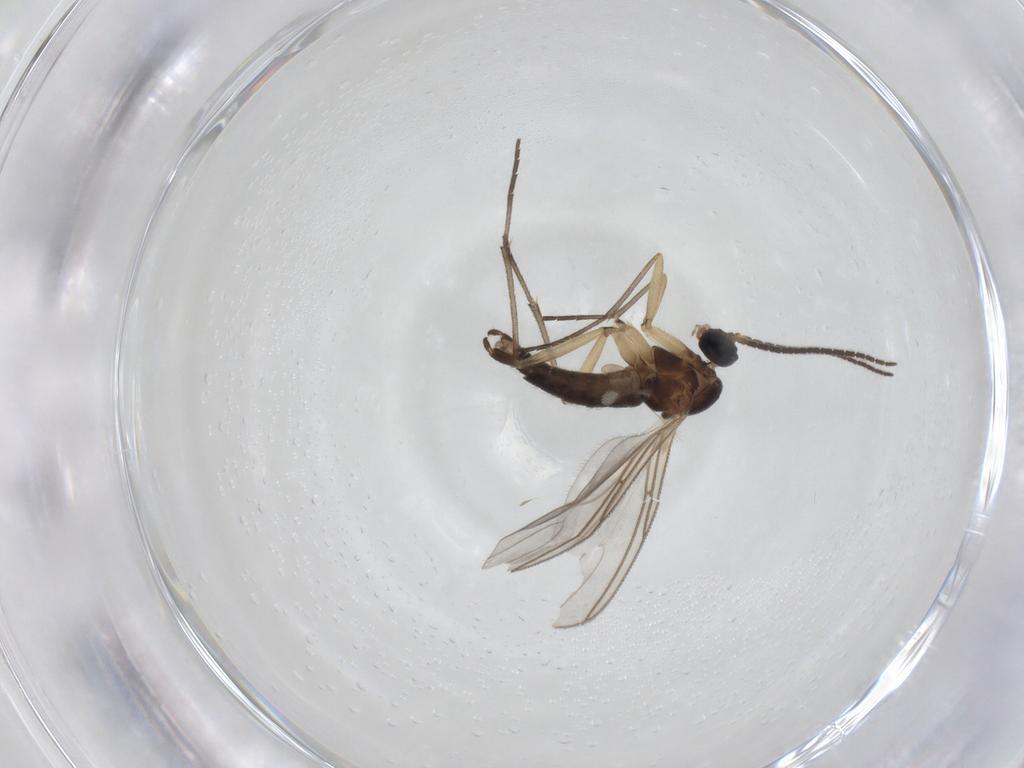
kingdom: Animalia
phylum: Arthropoda
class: Insecta
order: Diptera
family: Sciaridae
